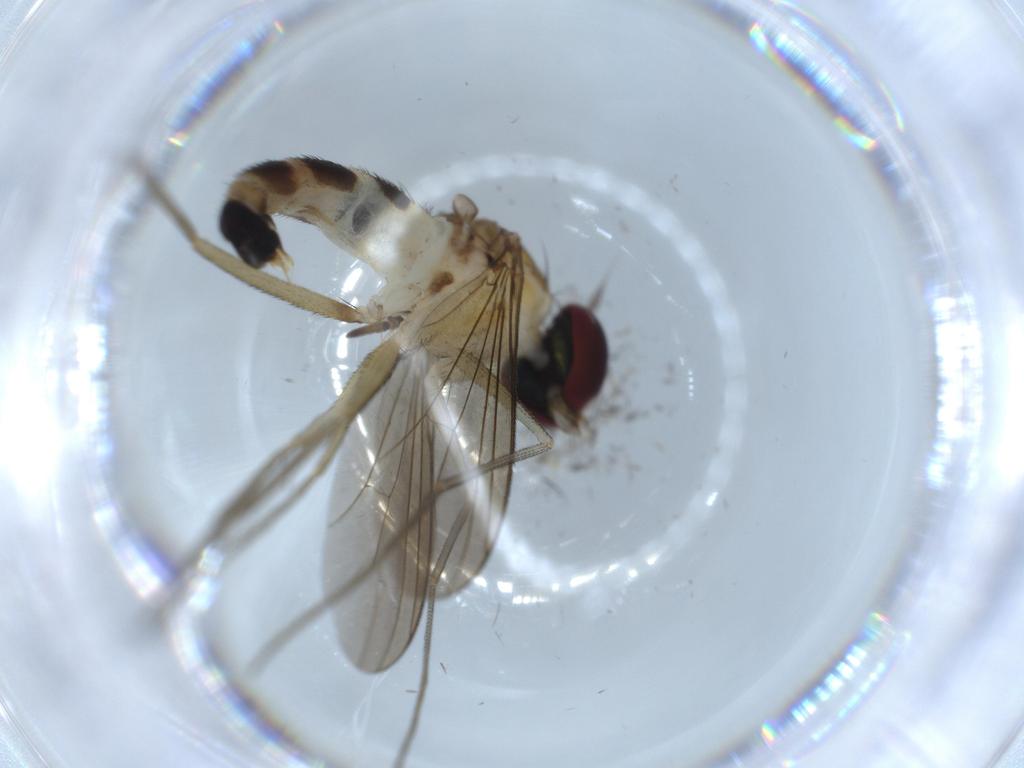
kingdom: Animalia
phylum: Arthropoda
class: Insecta
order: Diptera
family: Dolichopodidae
